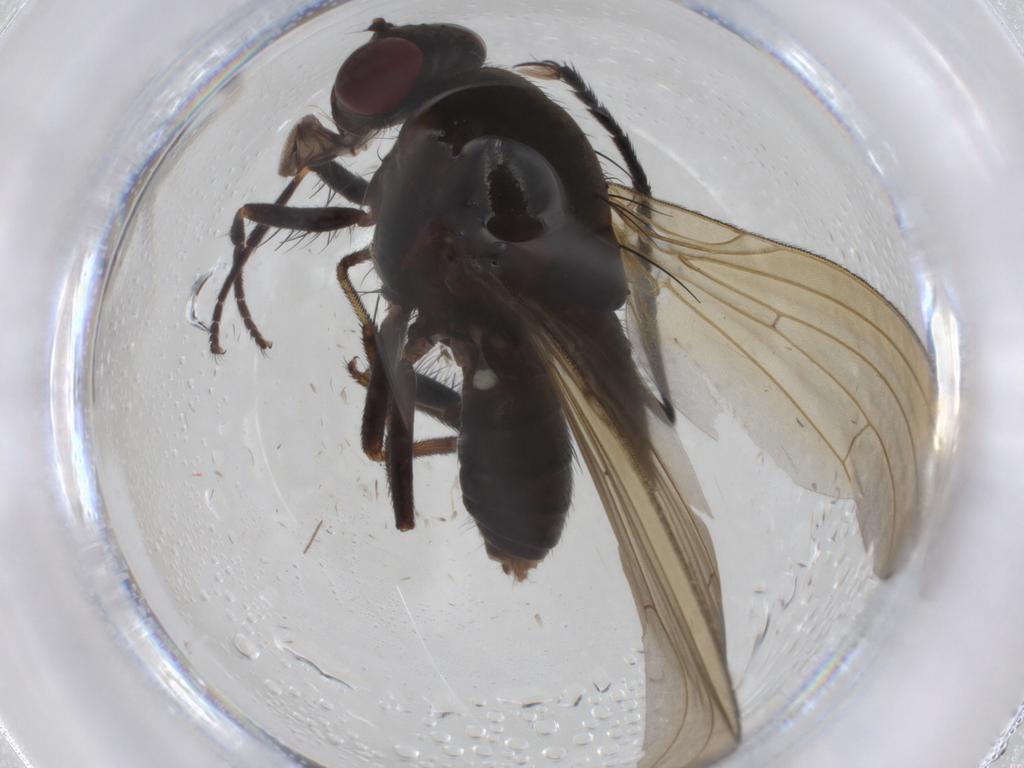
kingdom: Animalia
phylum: Arthropoda
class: Insecta
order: Diptera
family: Tachinidae
